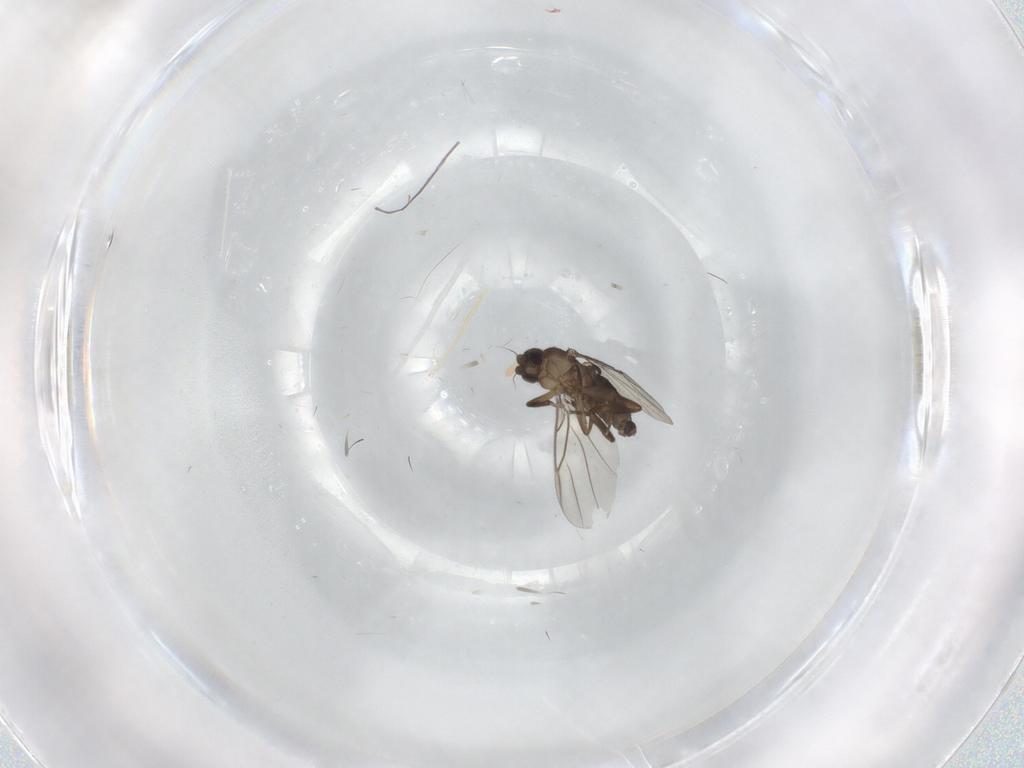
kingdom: Animalia
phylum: Arthropoda
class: Insecta
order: Diptera
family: Phoridae
